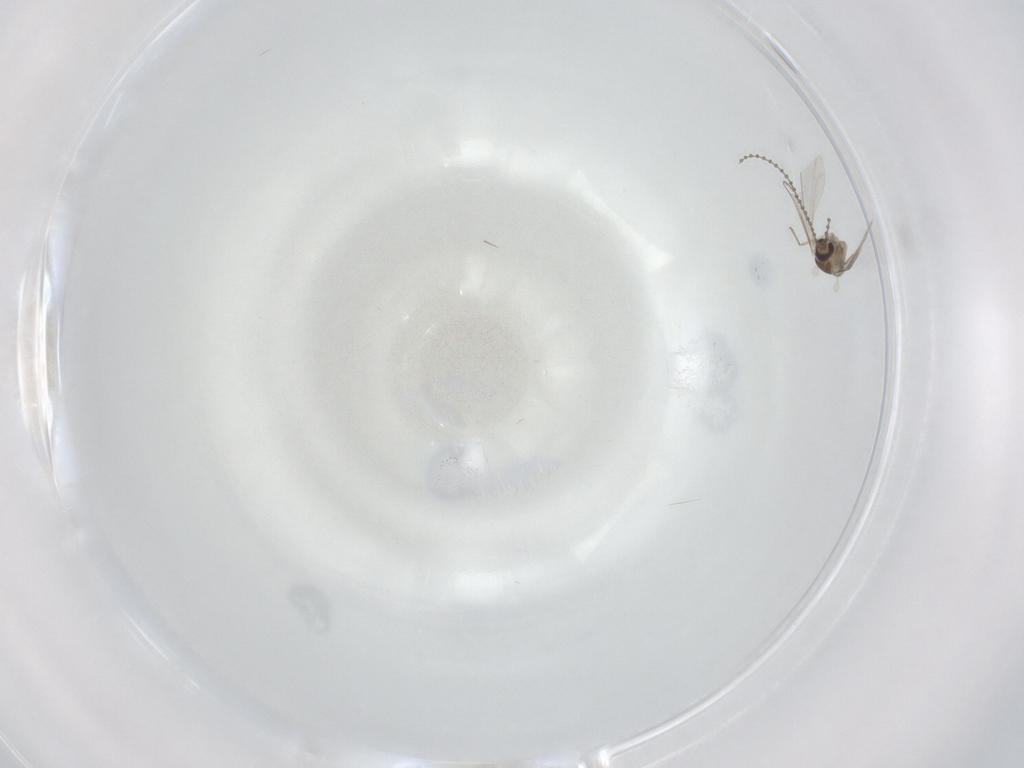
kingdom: Animalia
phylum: Arthropoda
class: Insecta
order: Diptera
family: Cecidomyiidae
